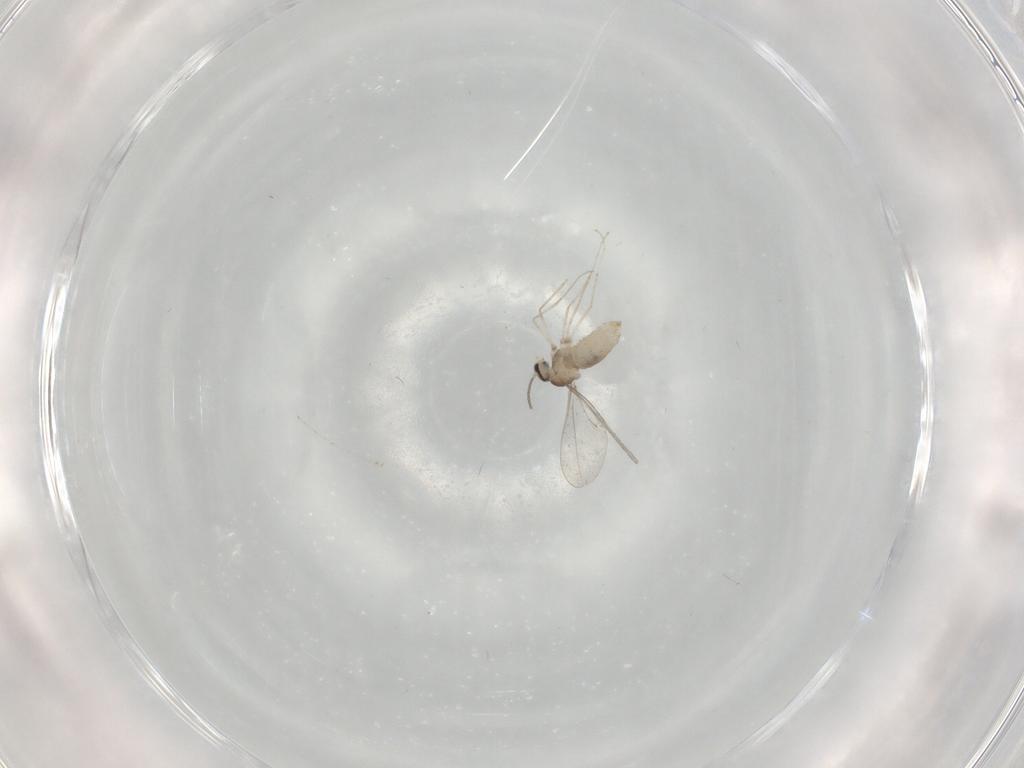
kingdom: Animalia
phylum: Arthropoda
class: Insecta
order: Diptera
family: Cecidomyiidae
